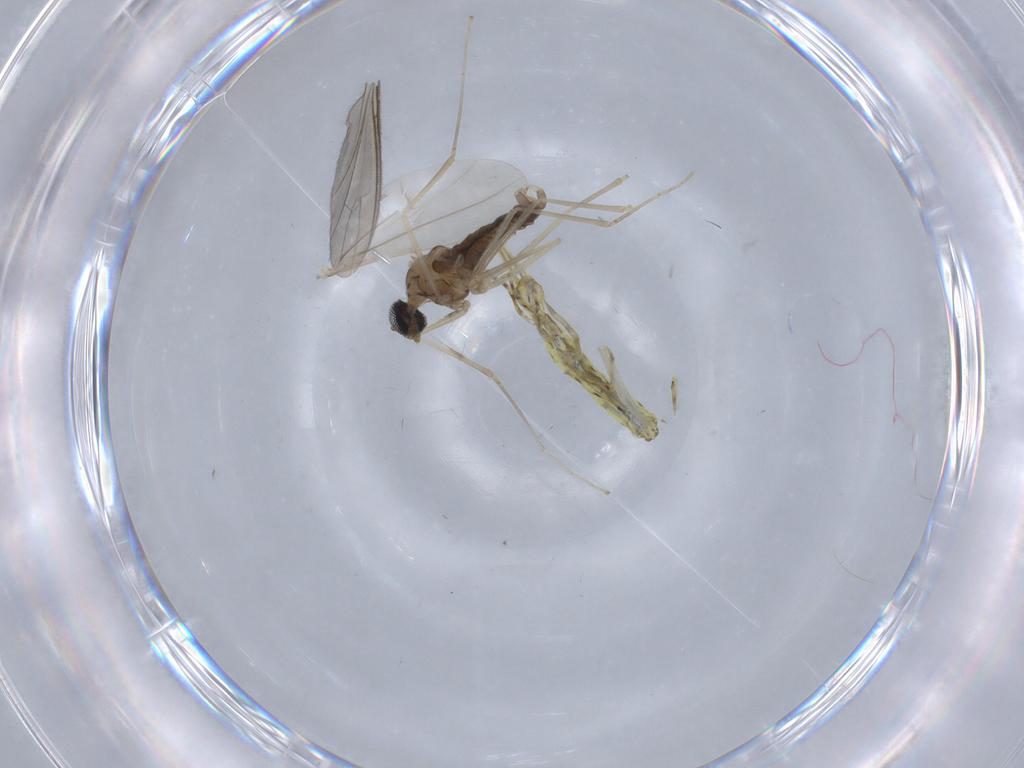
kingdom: Animalia
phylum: Arthropoda
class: Insecta
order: Diptera
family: Cecidomyiidae
